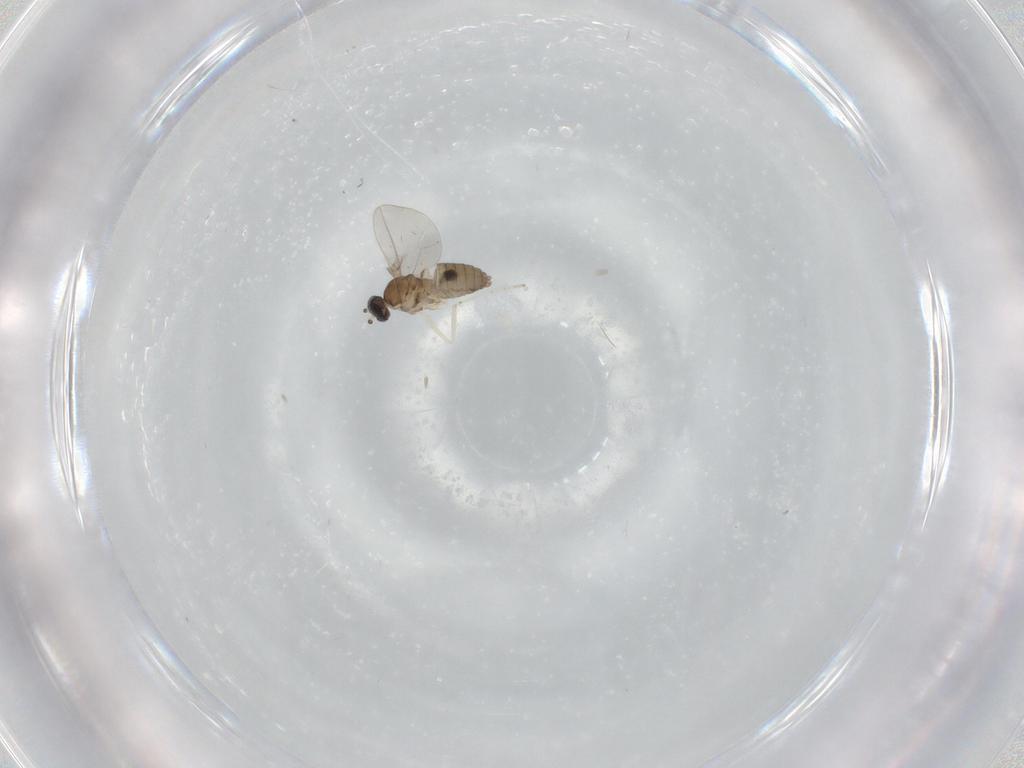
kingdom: Animalia
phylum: Arthropoda
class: Insecta
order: Diptera
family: Cecidomyiidae
